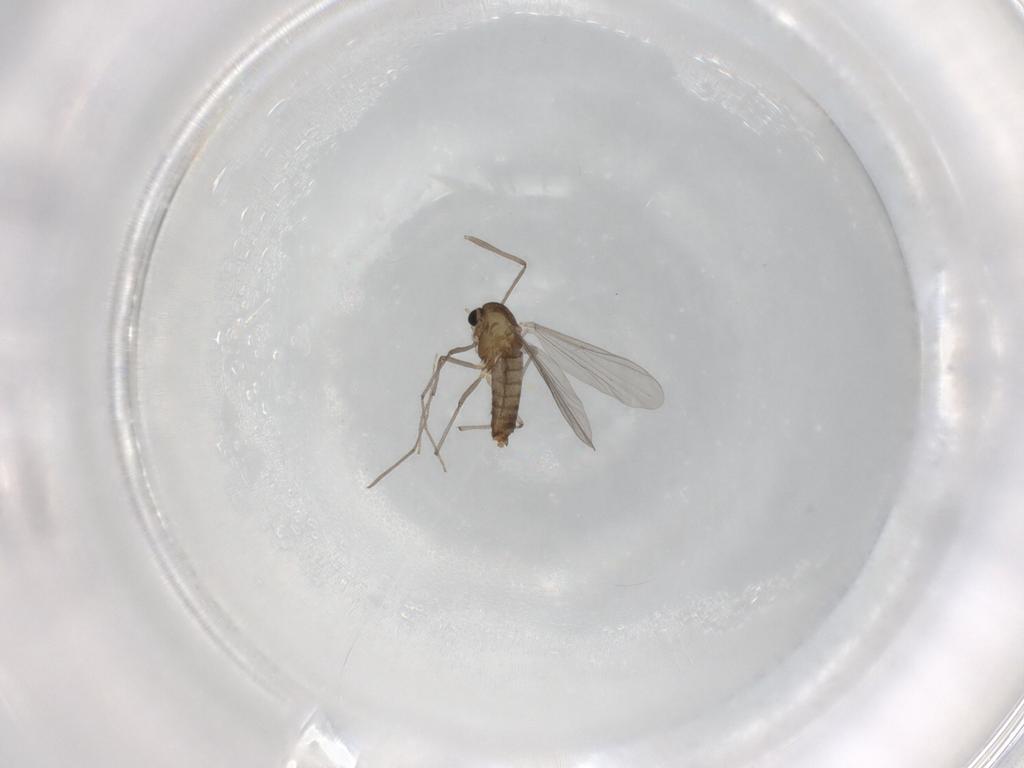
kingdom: Animalia
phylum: Arthropoda
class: Insecta
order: Diptera
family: Chironomidae
